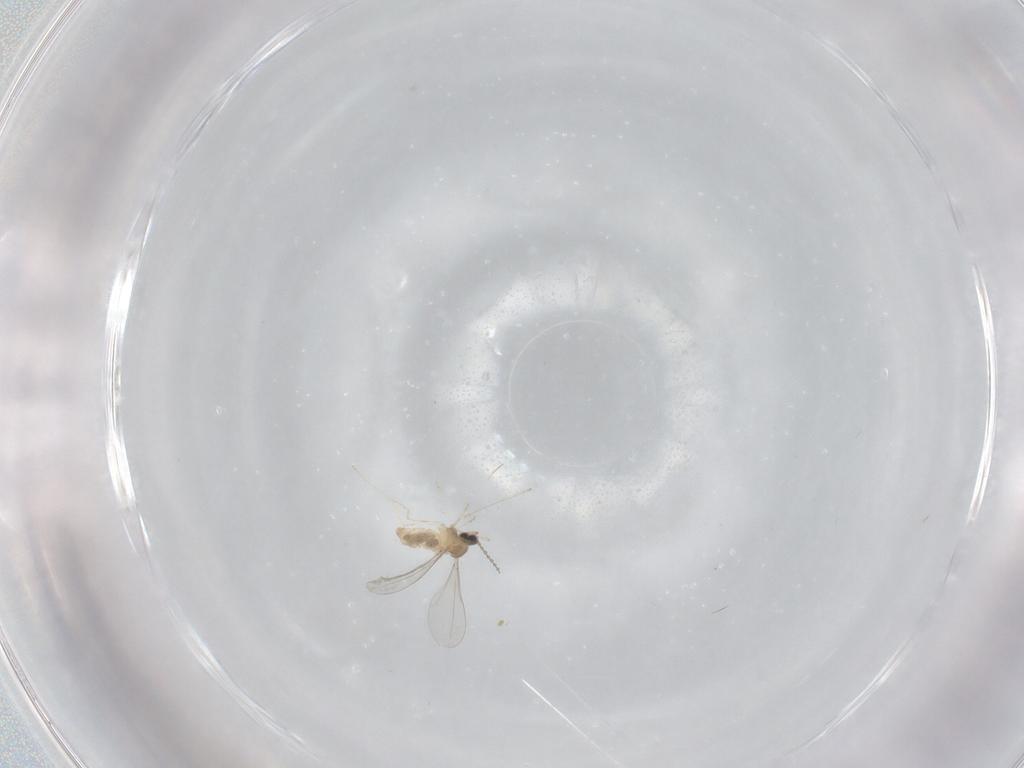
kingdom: Animalia
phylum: Arthropoda
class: Insecta
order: Diptera
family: Cecidomyiidae
